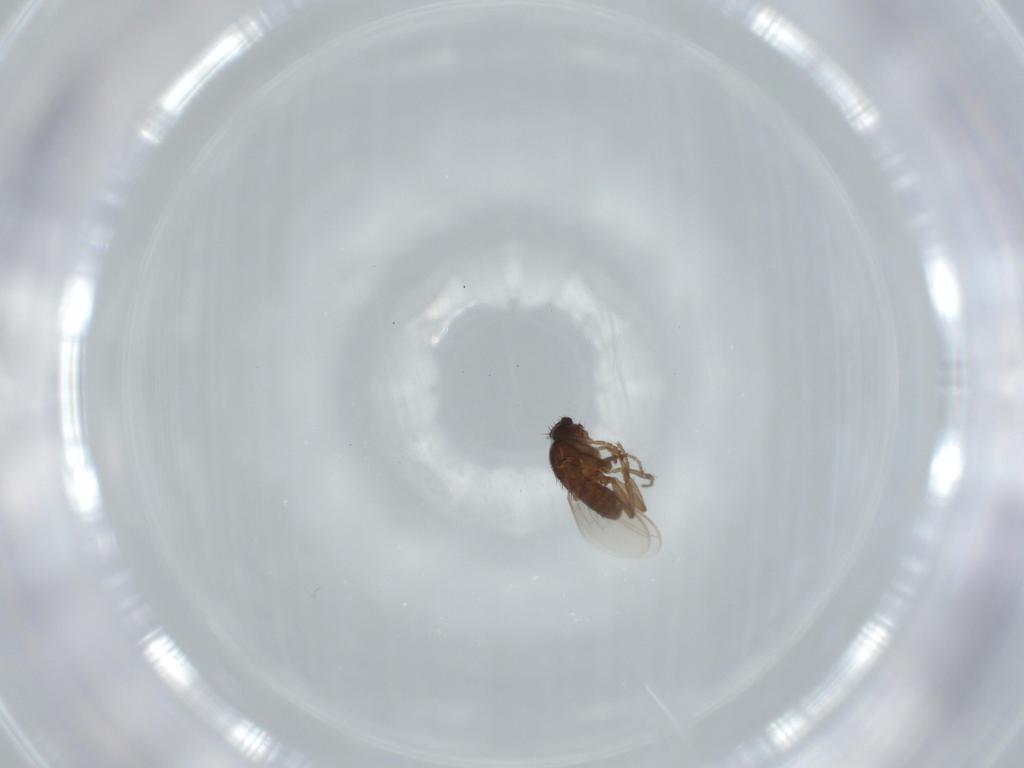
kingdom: Animalia
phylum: Arthropoda
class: Insecta
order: Diptera
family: Sphaeroceridae
